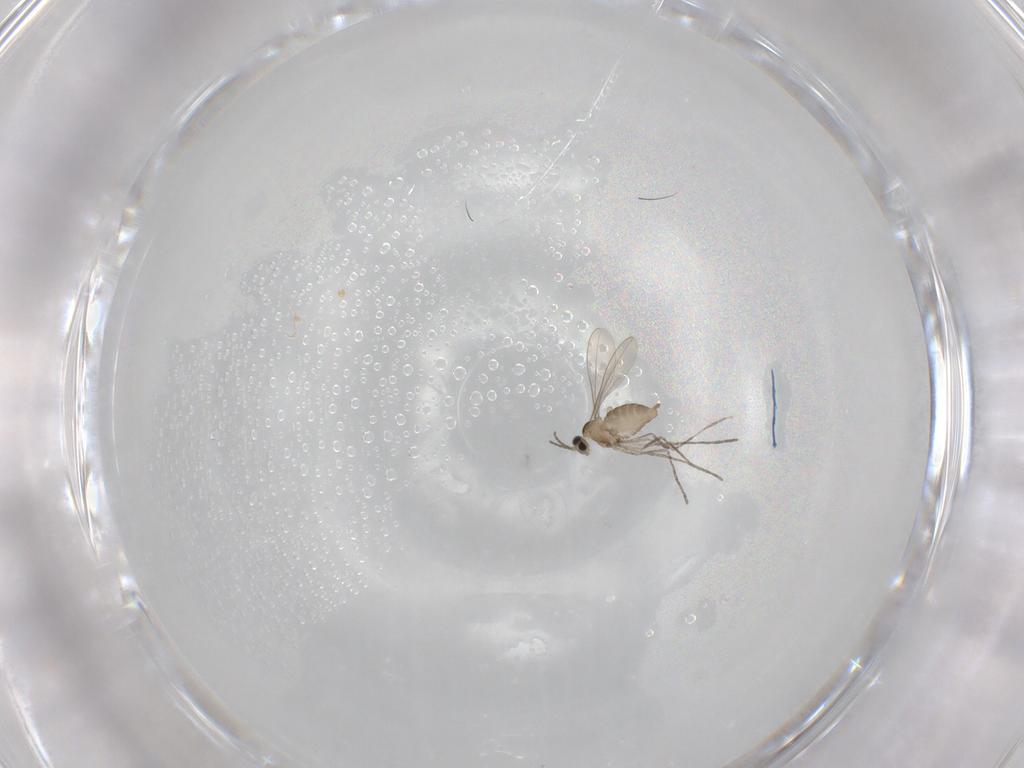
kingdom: Animalia
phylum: Arthropoda
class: Insecta
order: Diptera
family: Cecidomyiidae
